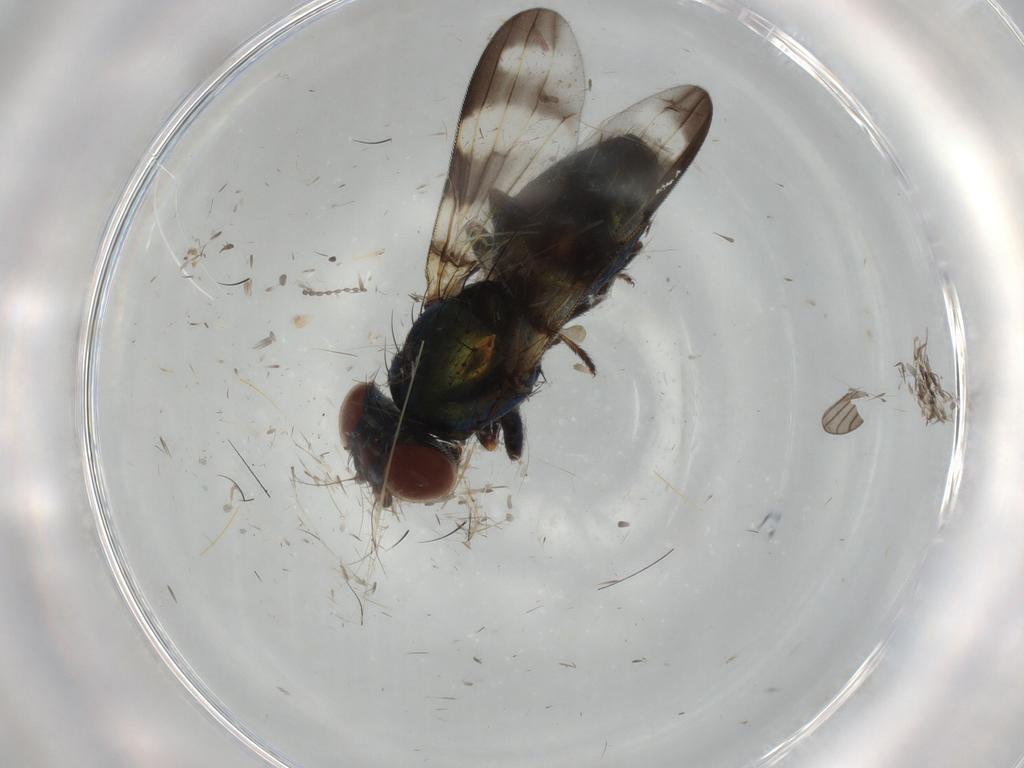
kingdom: Animalia
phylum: Arthropoda
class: Insecta
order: Diptera
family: Ulidiidae
